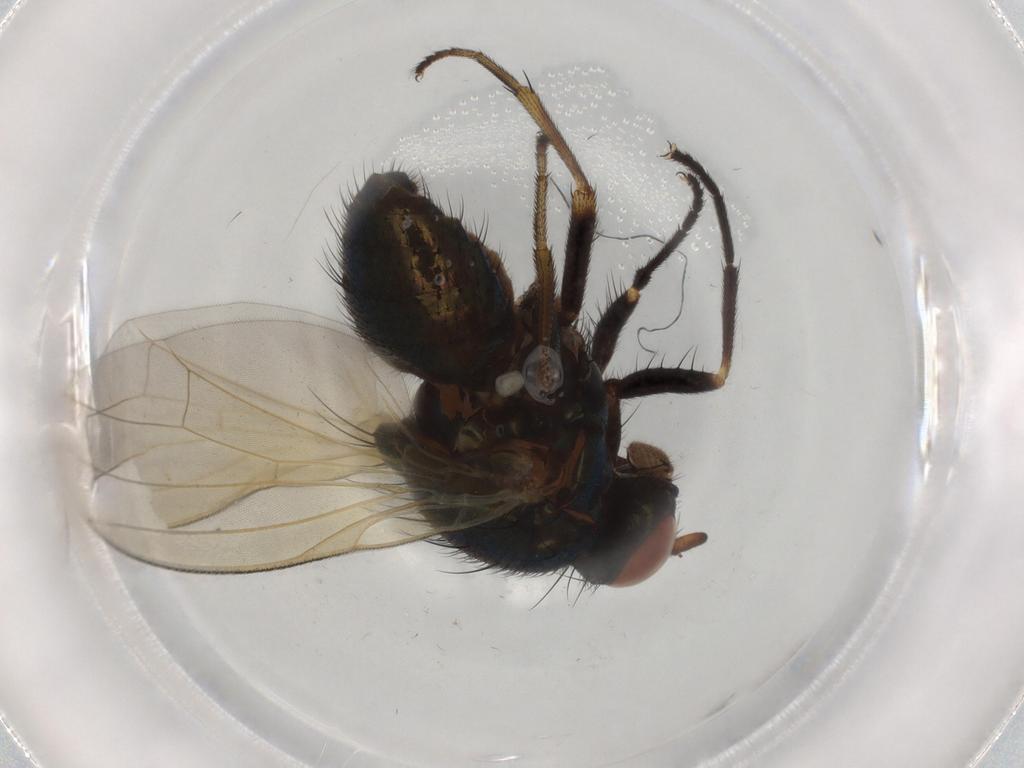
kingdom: Animalia
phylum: Arthropoda
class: Insecta
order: Diptera
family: Lauxaniidae
